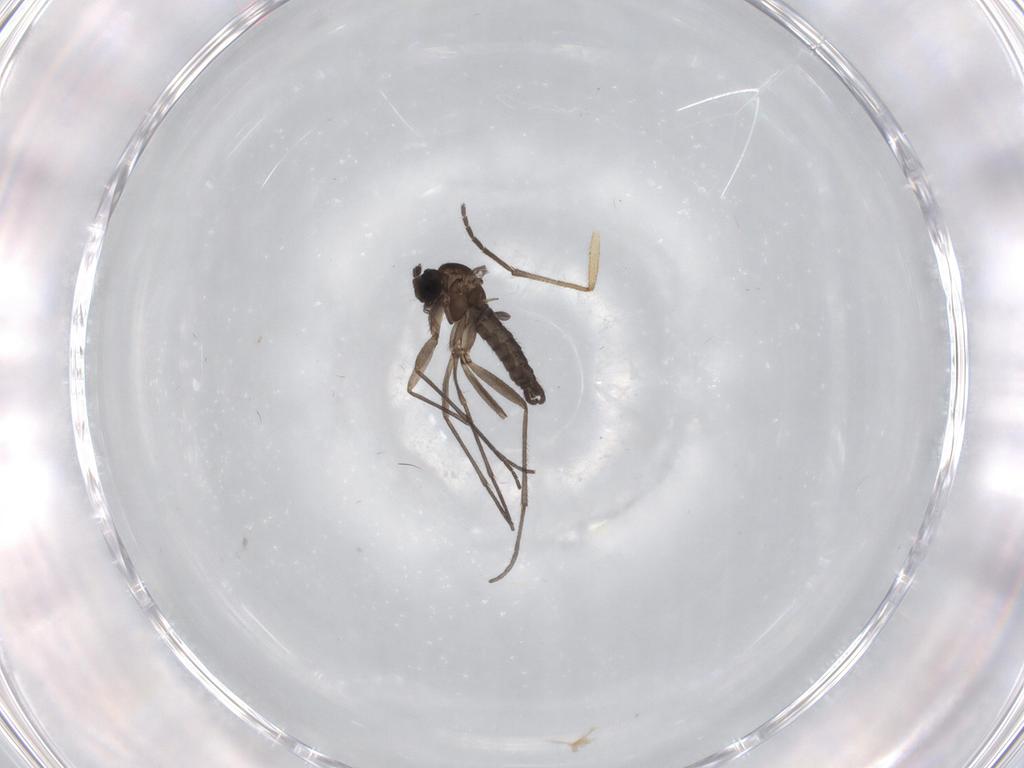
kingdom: Animalia
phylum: Arthropoda
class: Insecta
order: Diptera
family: Sciaridae
